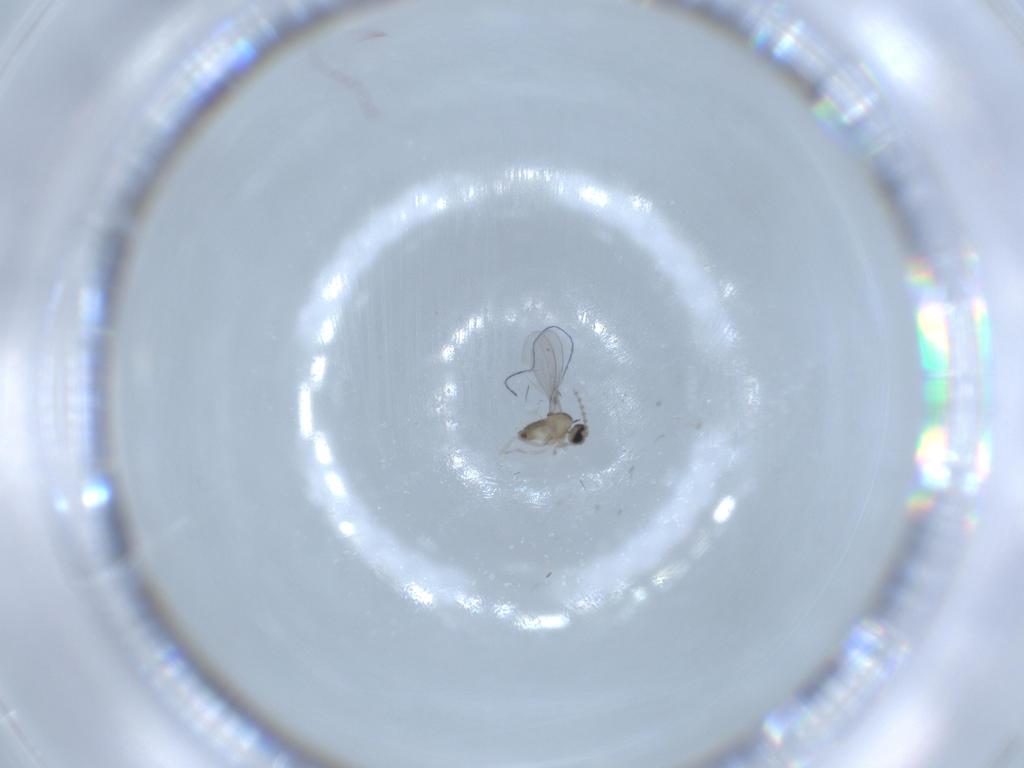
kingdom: Animalia
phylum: Arthropoda
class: Insecta
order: Diptera
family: Cecidomyiidae
